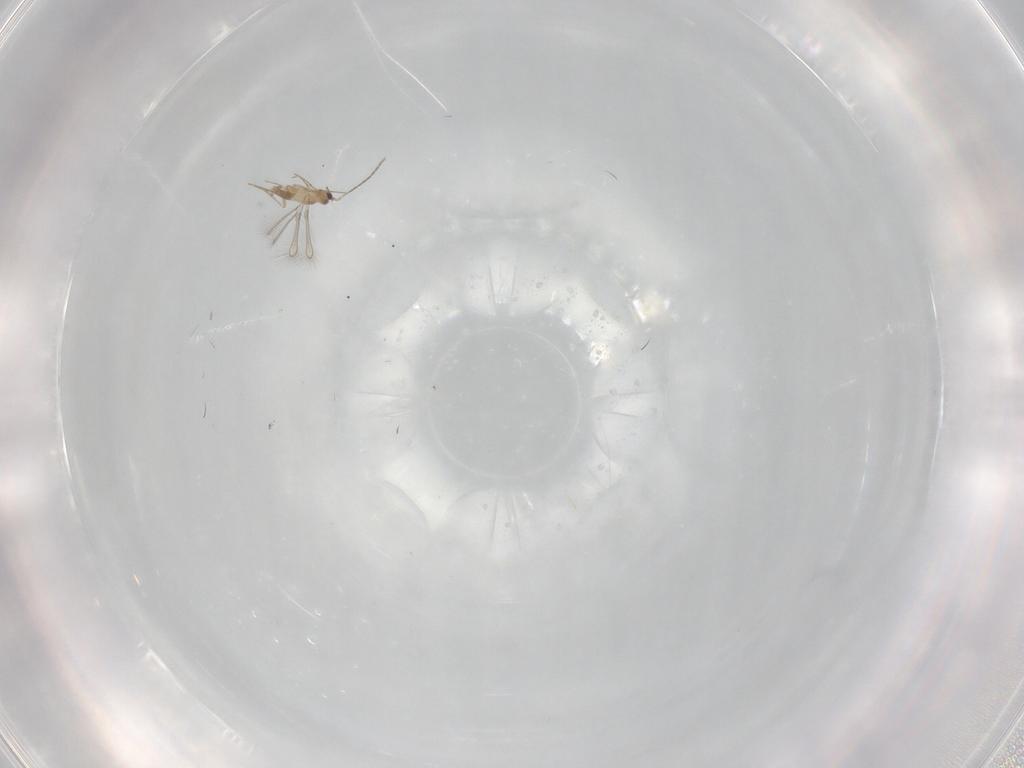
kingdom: Animalia
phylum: Arthropoda
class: Insecta
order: Hymenoptera
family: Mymaridae
